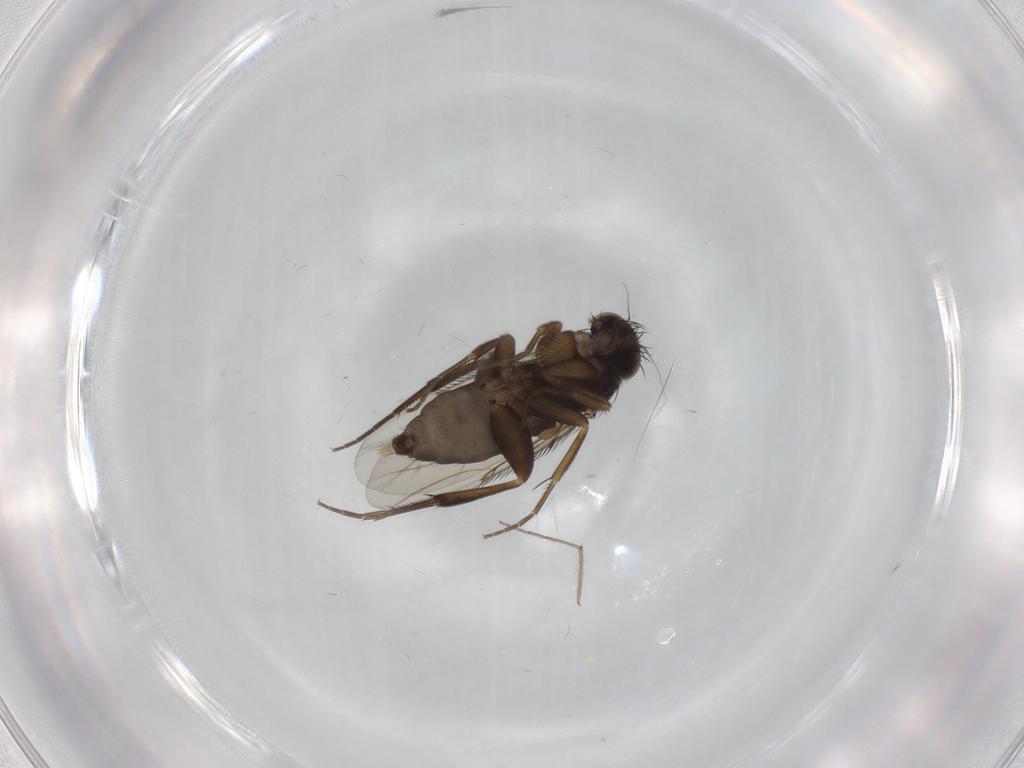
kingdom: Animalia
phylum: Arthropoda
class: Insecta
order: Diptera
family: Phoridae
